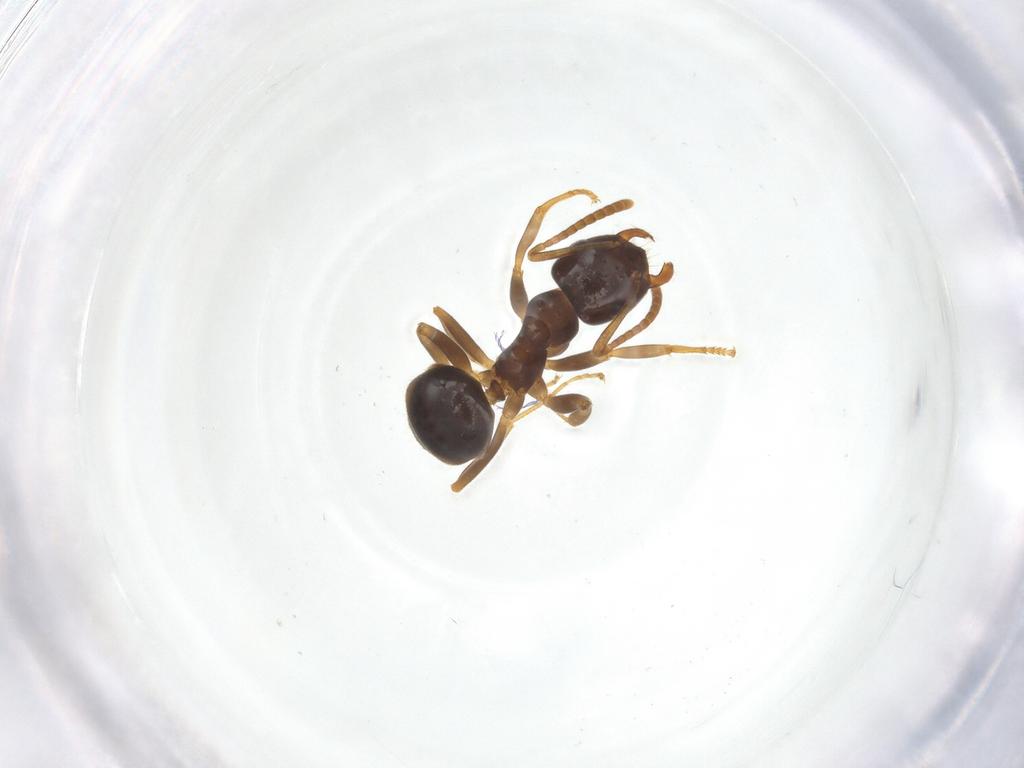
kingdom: Animalia
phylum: Arthropoda
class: Insecta
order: Hymenoptera
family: Formicidae
